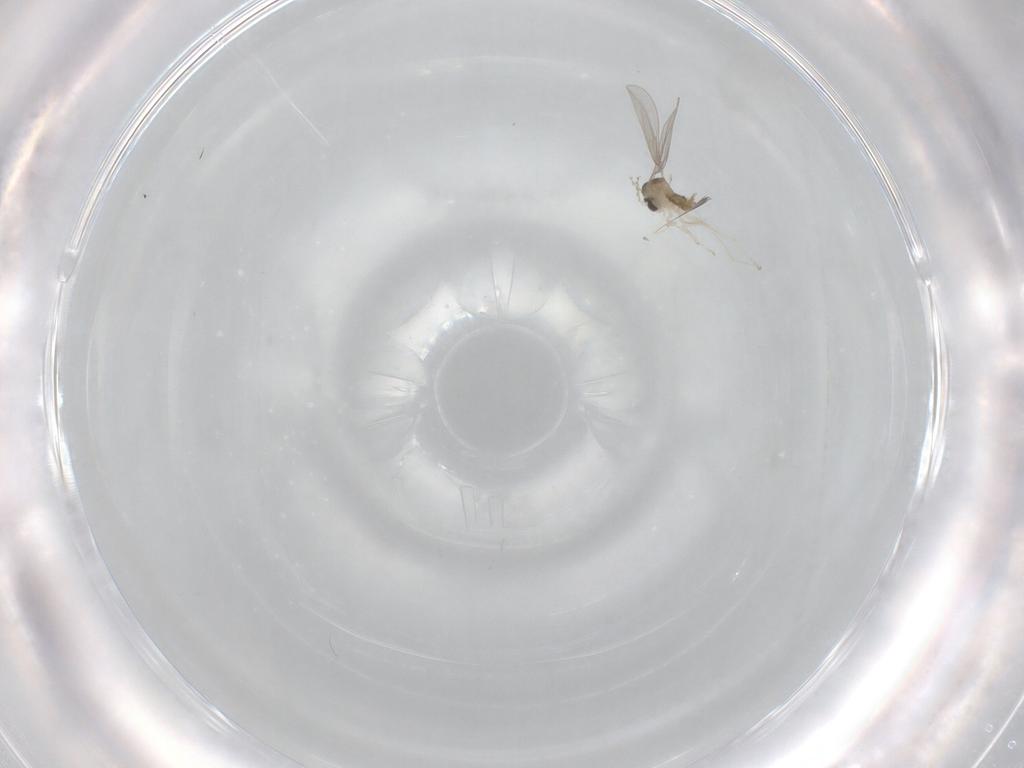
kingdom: Animalia
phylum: Arthropoda
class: Insecta
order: Diptera
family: Cecidomyiidae
